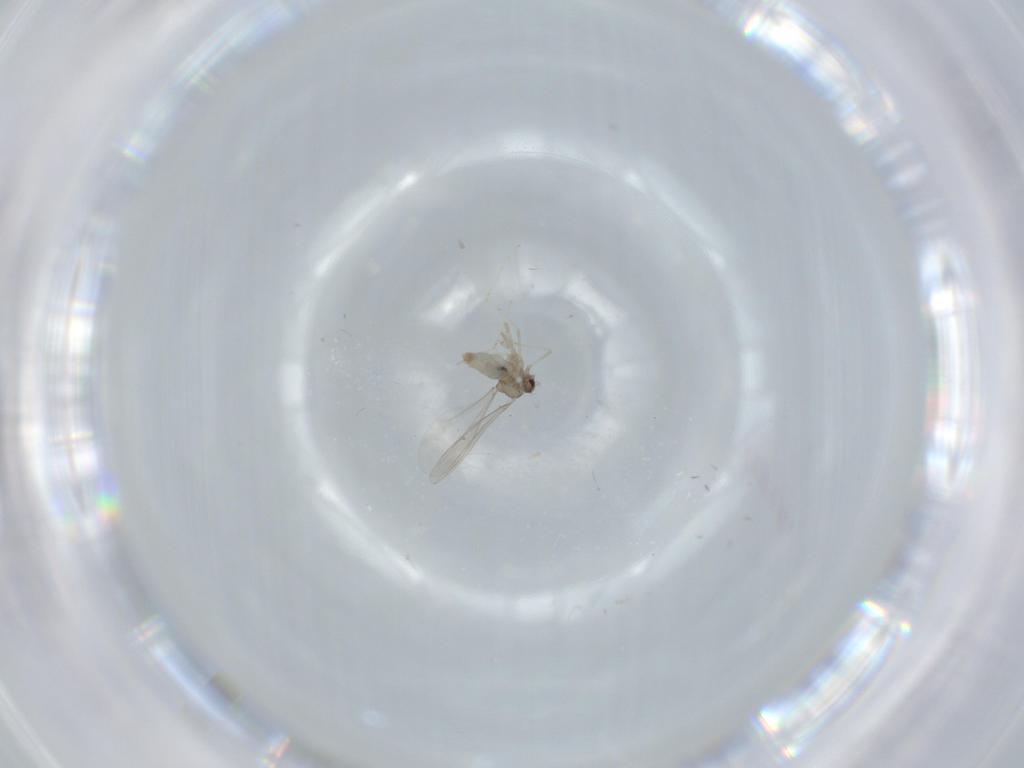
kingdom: Animalia
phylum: Arthropoda
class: Insecta
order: Diptera
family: Cecidomyiidae
